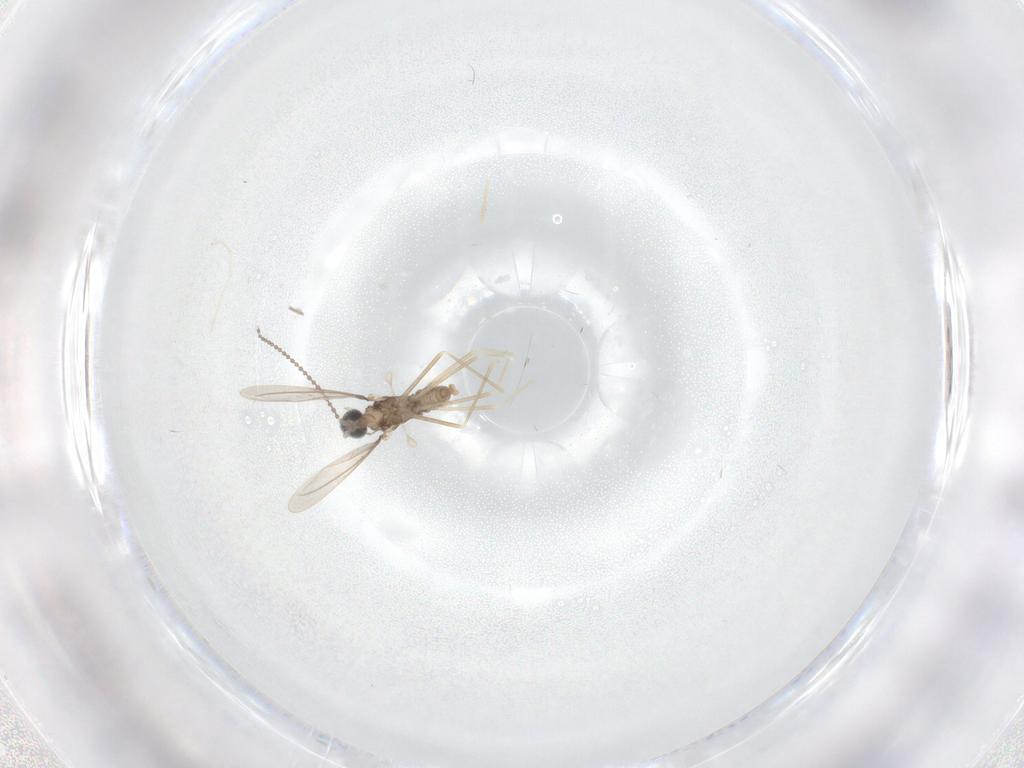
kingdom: Animalia
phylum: Arthropoda
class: Insecta
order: Diptera
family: Cecidomyiidae
